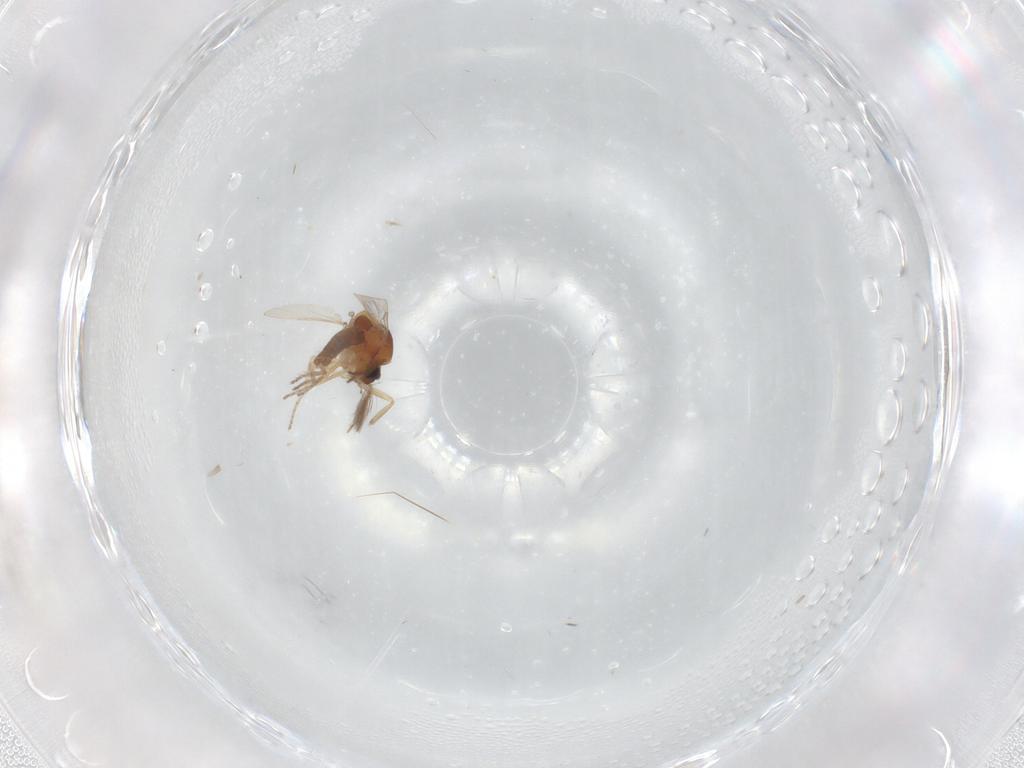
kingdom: Animalia
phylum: Arthropoda
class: Insecta
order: Diptera
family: Ceratopogonidae
